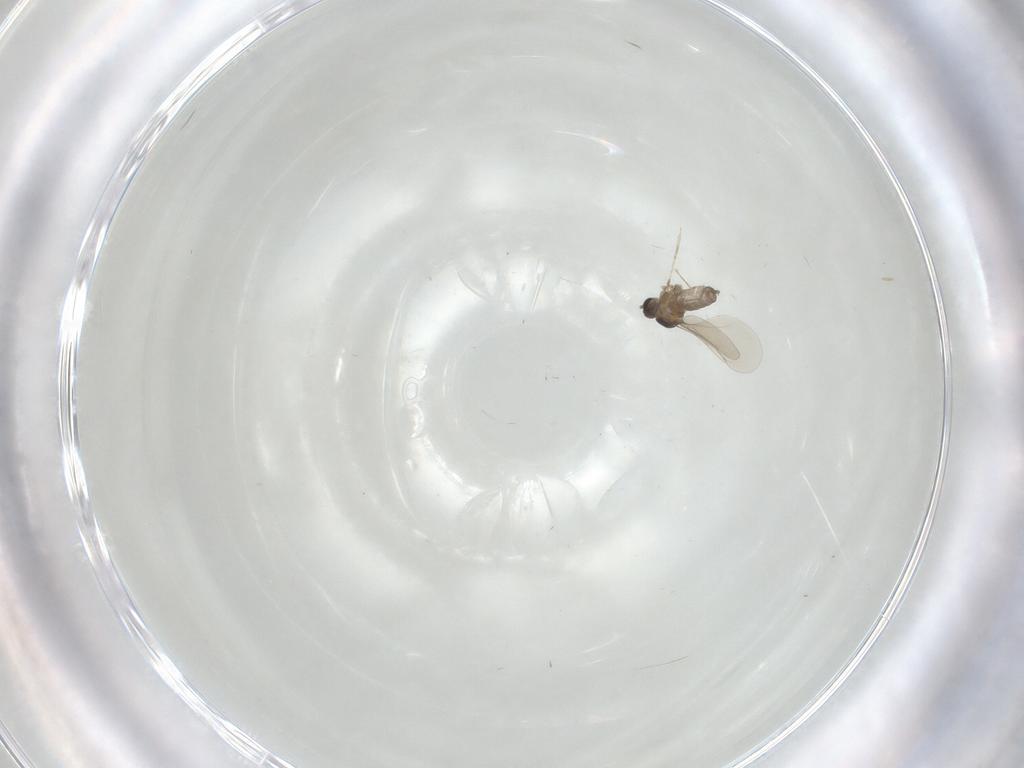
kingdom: Animalia
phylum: Arthropoda
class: Insecta
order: Diptera
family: Cecidomyiidae
